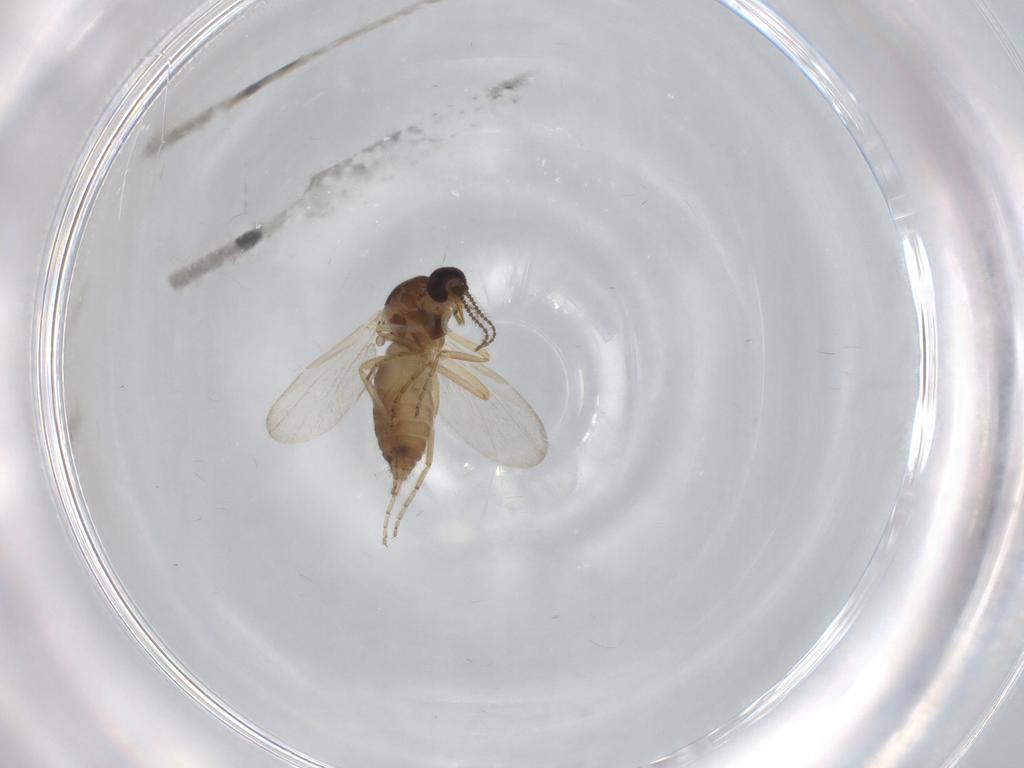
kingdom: Animalia
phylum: Arthropoda
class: Insecta
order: Diptera
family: Ceratopogonidae
